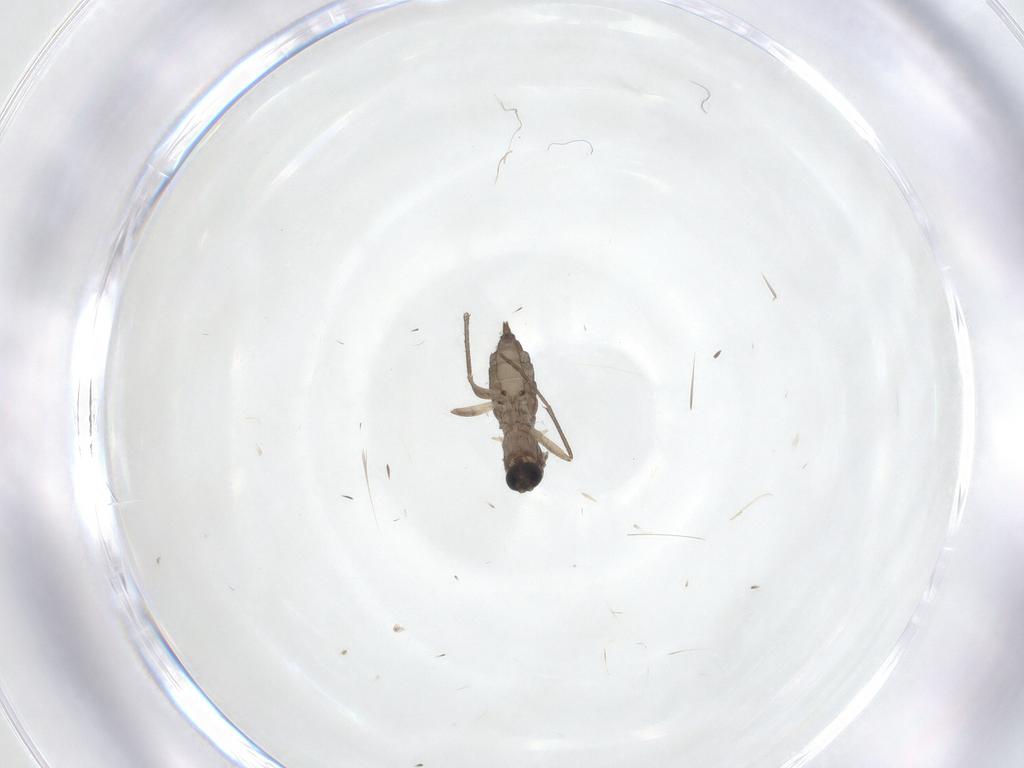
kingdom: Animalia
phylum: Arthropoda
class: Insecta
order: Diptera
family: Sciaridae
